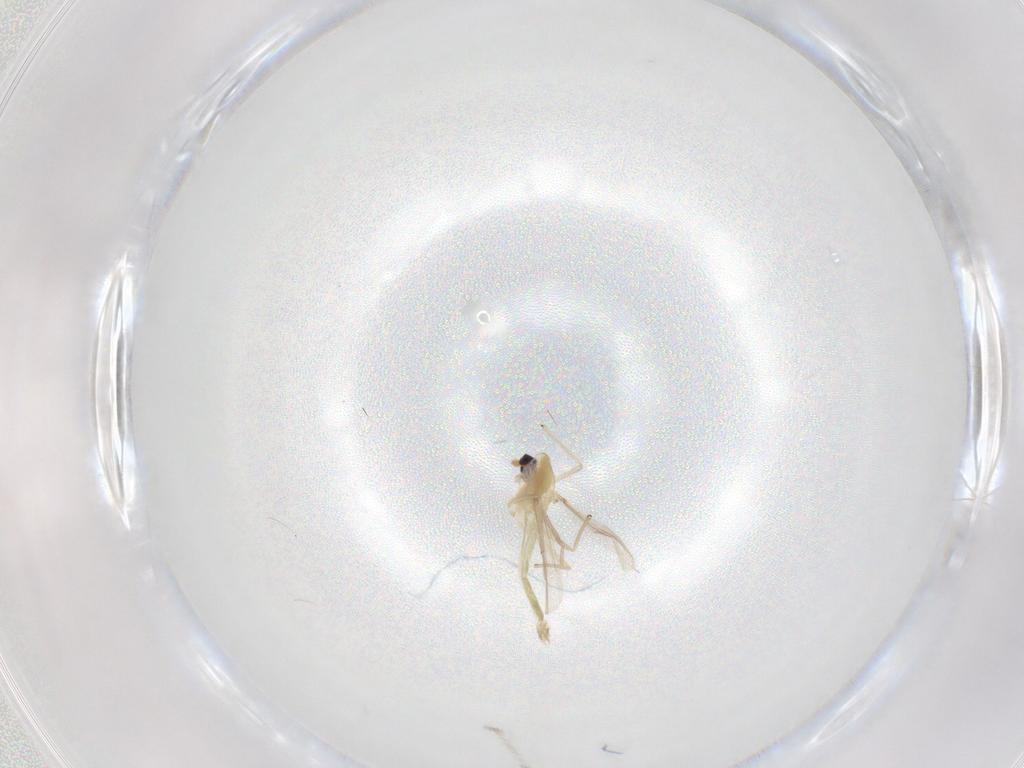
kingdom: Animalia
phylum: Arthropoda
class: Insecta
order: Diptera
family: Chironomidae
